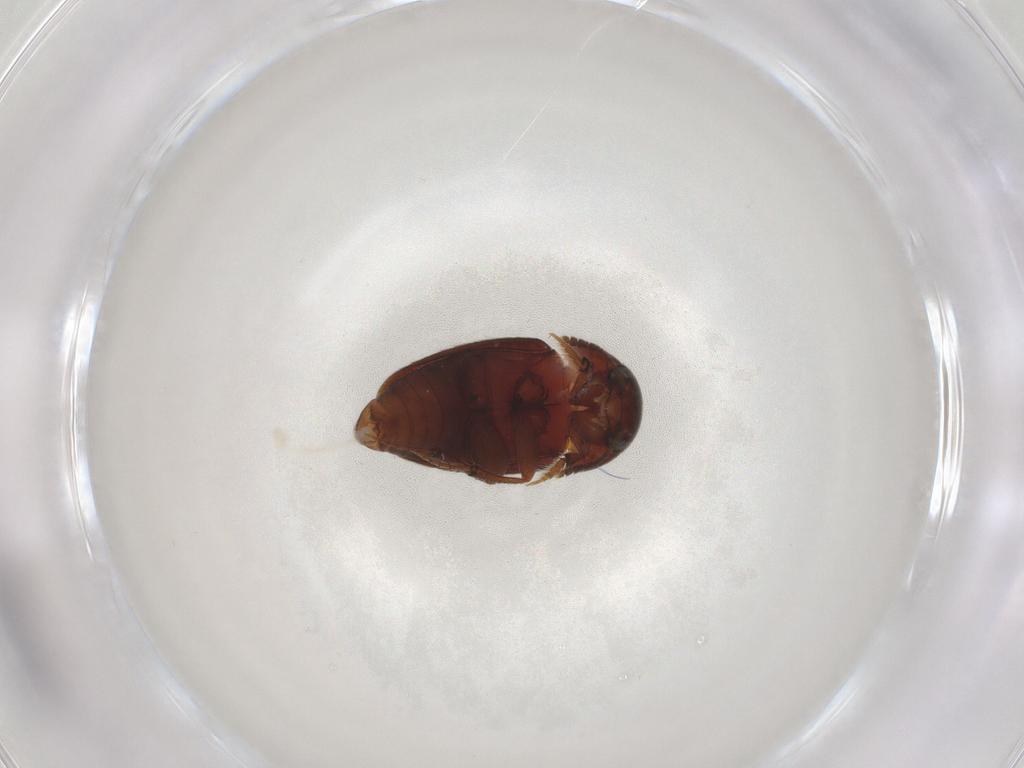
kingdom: Animalia
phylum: Arthropoda
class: Insecta
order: Coleoptera
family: Leiodidae
